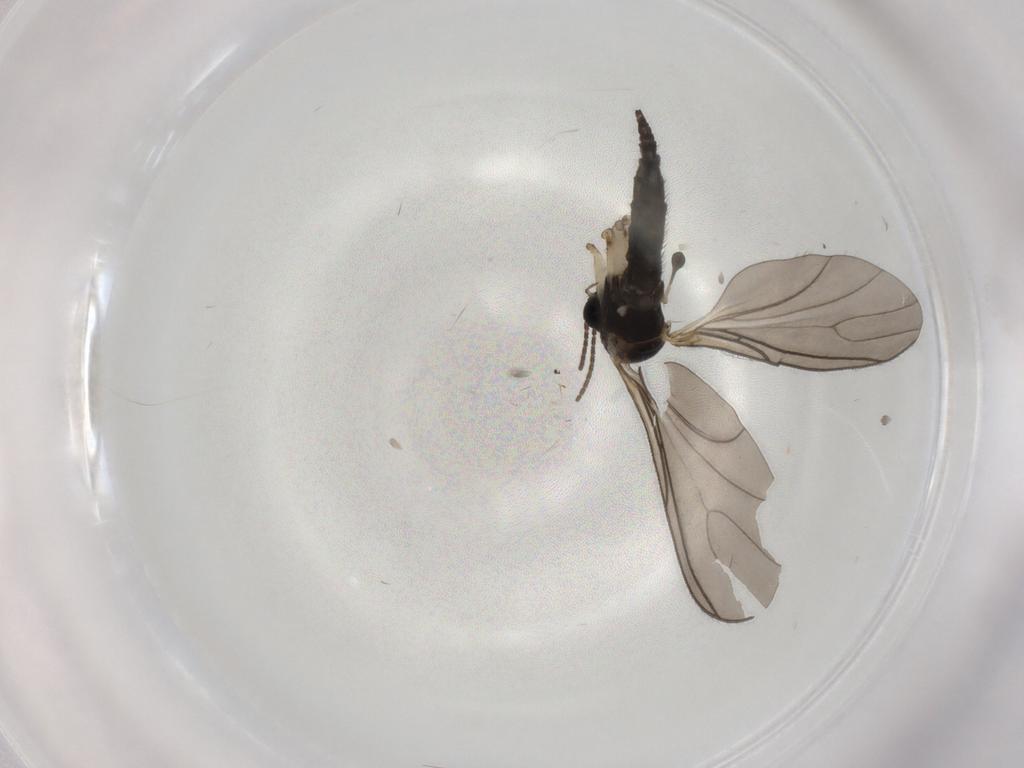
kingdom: Animalia
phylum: Arthropoda
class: Insecta
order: Diptera
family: Sciaridae
